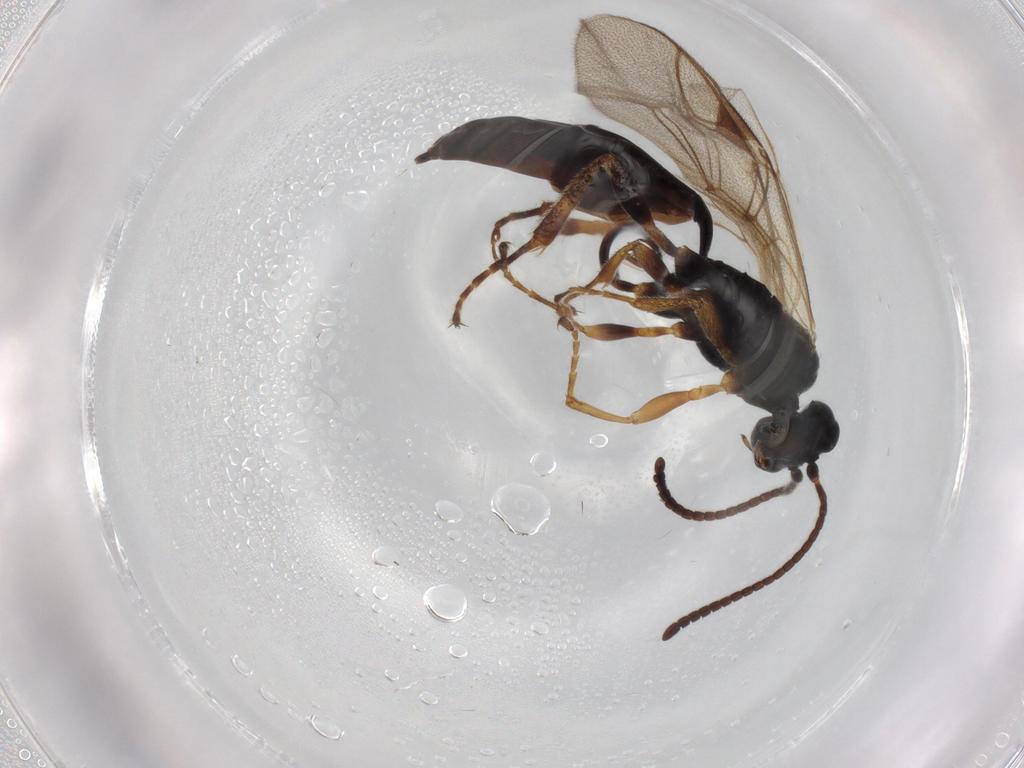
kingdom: Animalia
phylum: Arthropoda
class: Insecta
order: Hymenoptera
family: Ichneumonidae
